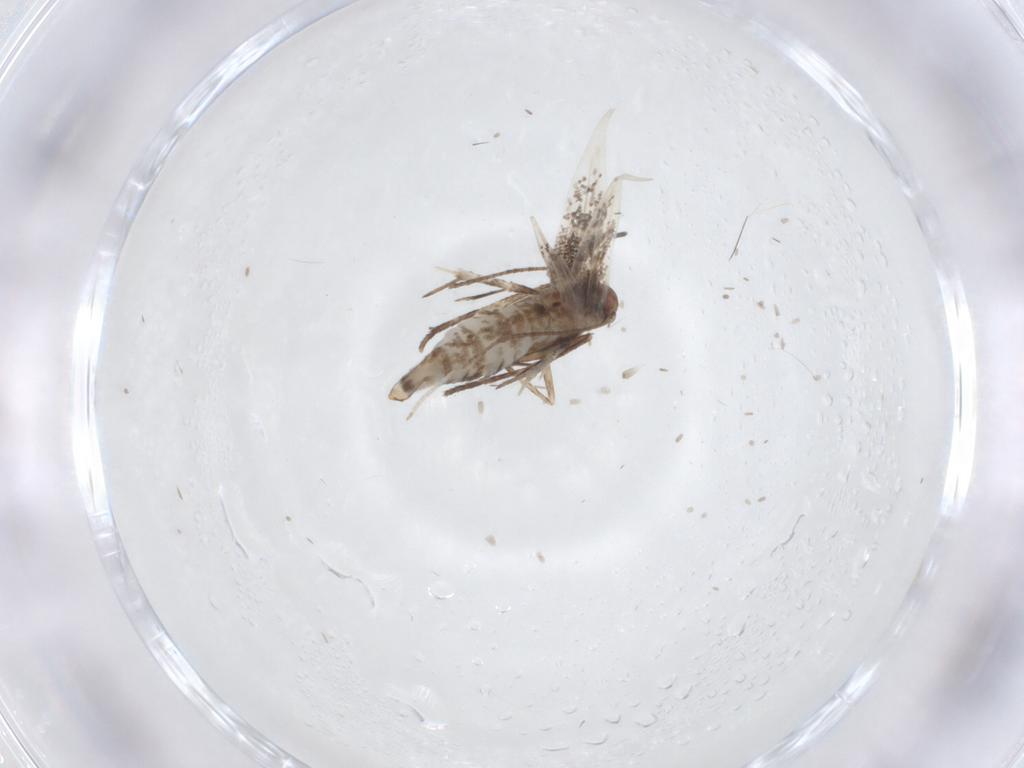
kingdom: Animalia
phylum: Arthropoda
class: Insecta
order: Lepidoptera
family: Gracillariidae
